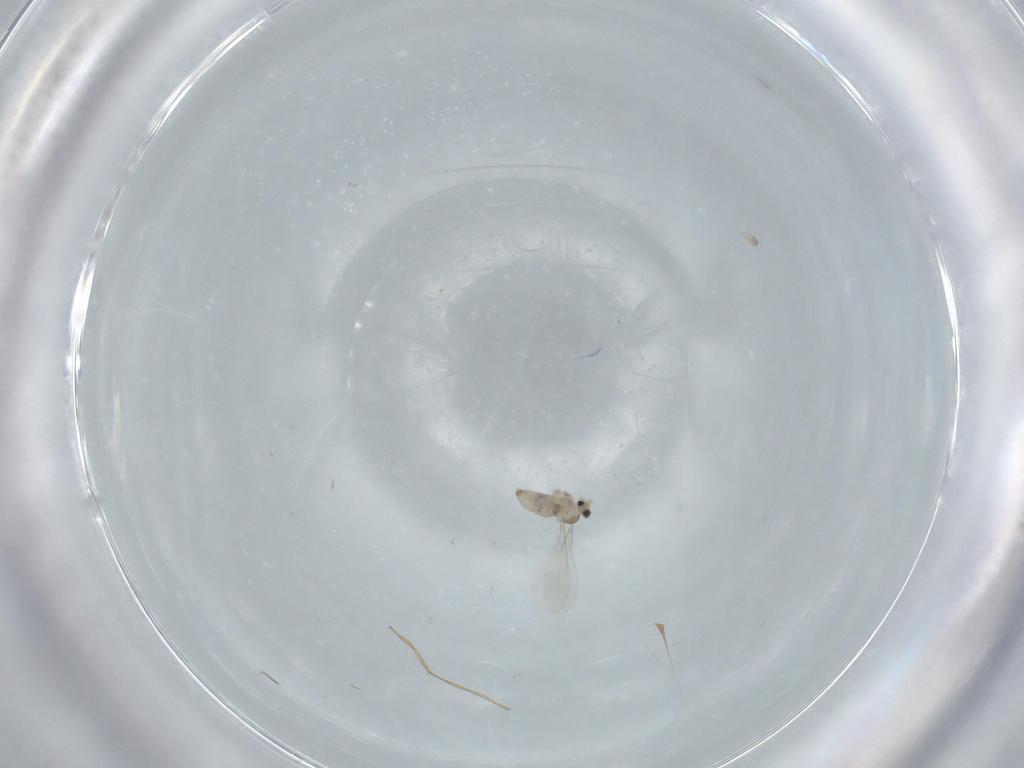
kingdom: Animalia
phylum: Arthropoda
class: Insecta
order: Diptera
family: Cecidomyiidae
